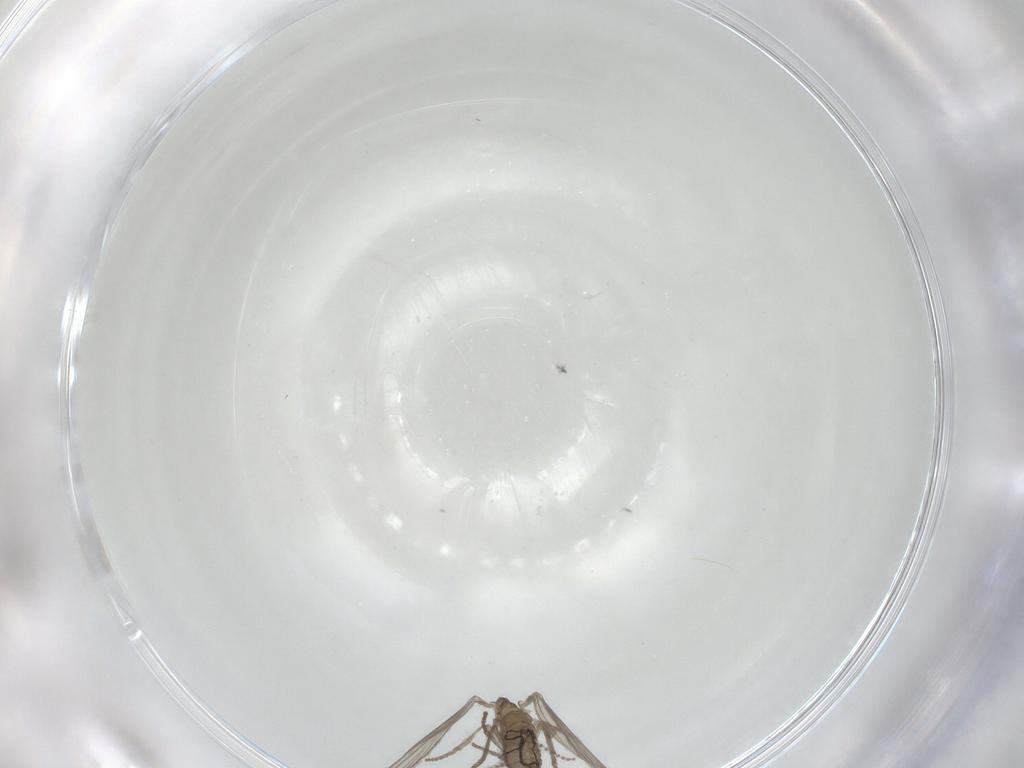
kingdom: Animalia
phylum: Arthropoda
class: Insecta
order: Diptera
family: Psychodidae
